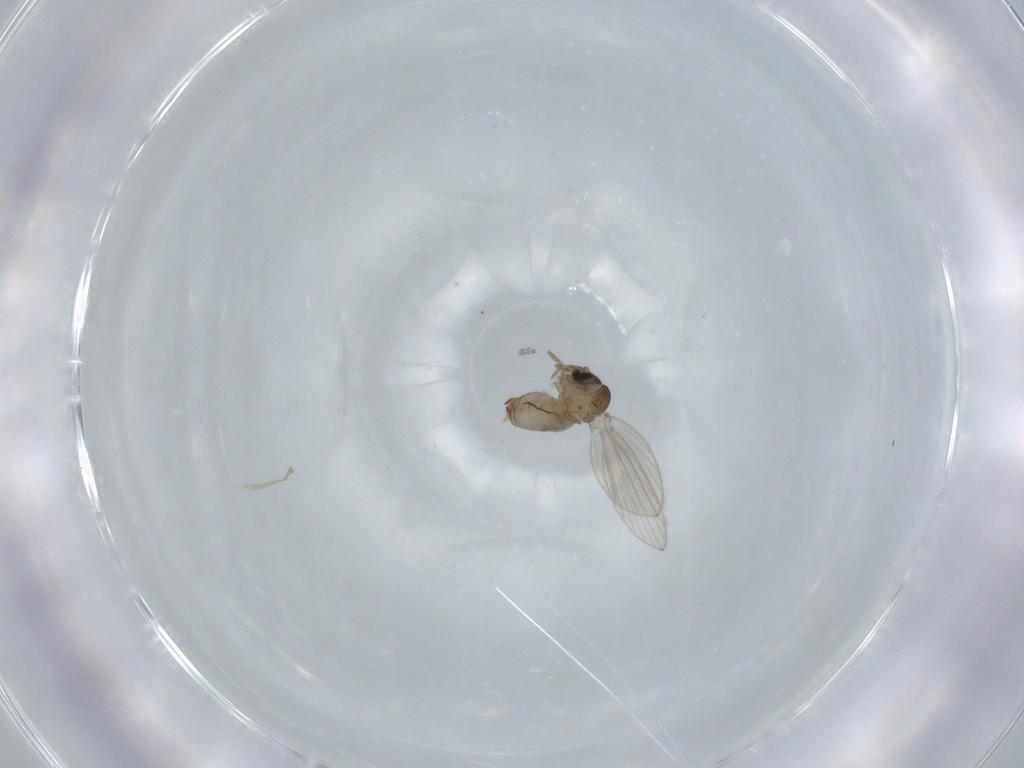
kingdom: Animalia
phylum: Arthropoda
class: Insecta
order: Diptera
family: Psychodidae
